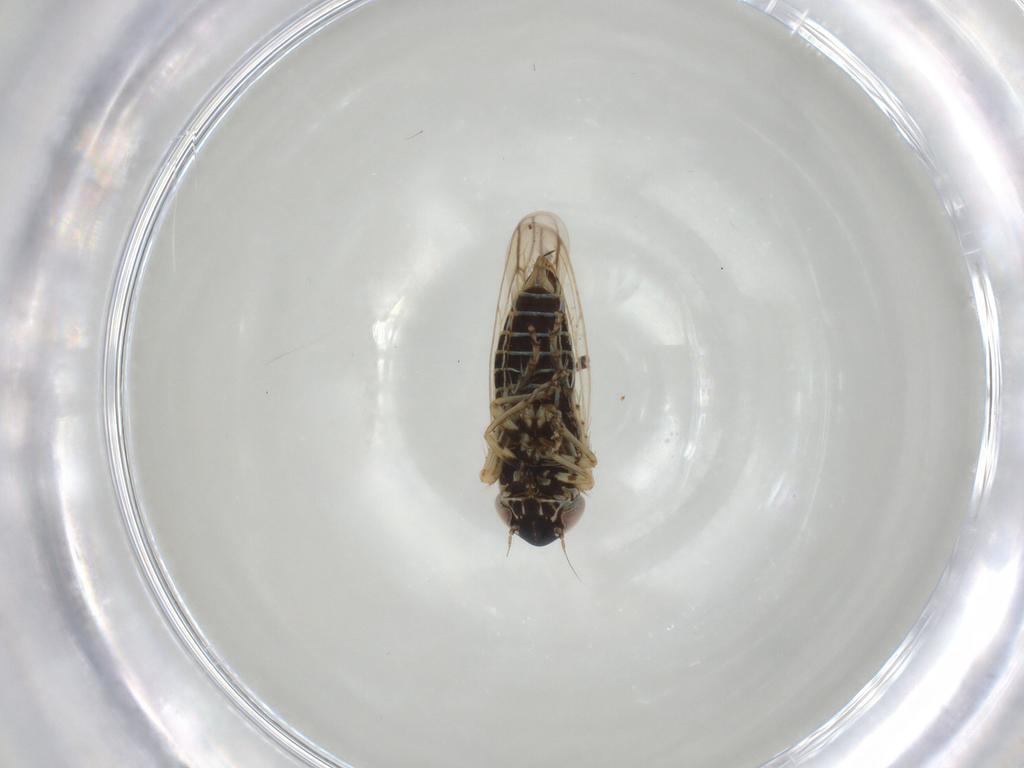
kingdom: Animalia
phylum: Arthropoda
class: Insecta
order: Hemiptera
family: Cicadellidae
